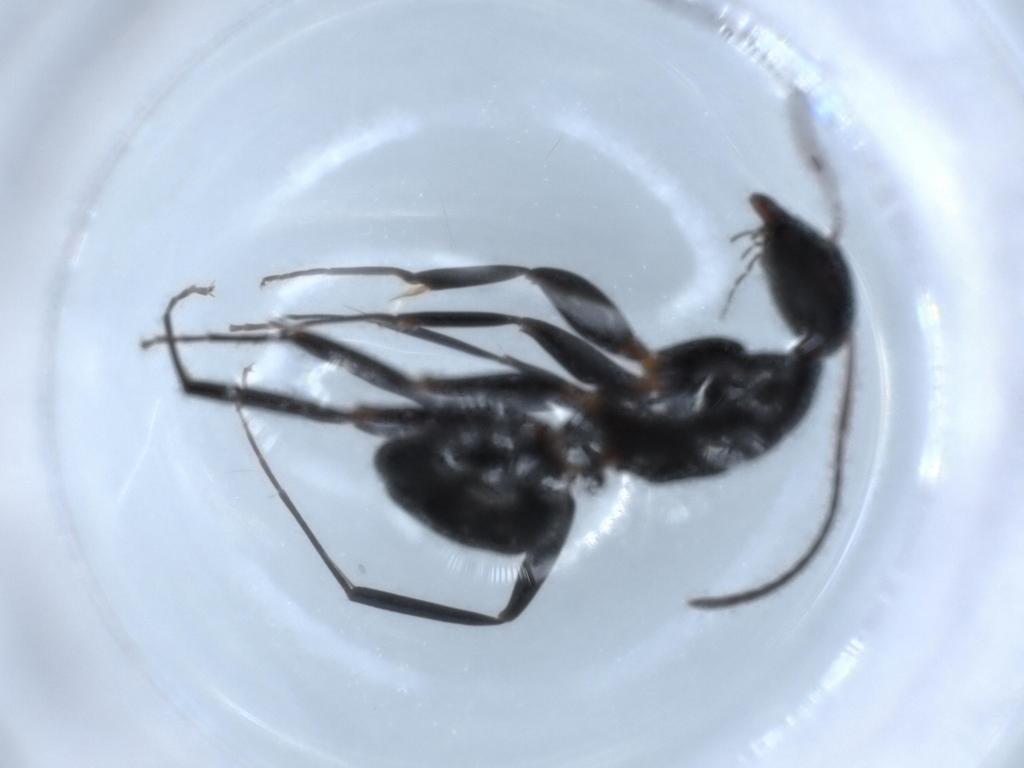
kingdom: Animalia
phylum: Arthropoda
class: Insecta
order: Hymenoptera
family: Formicidae
